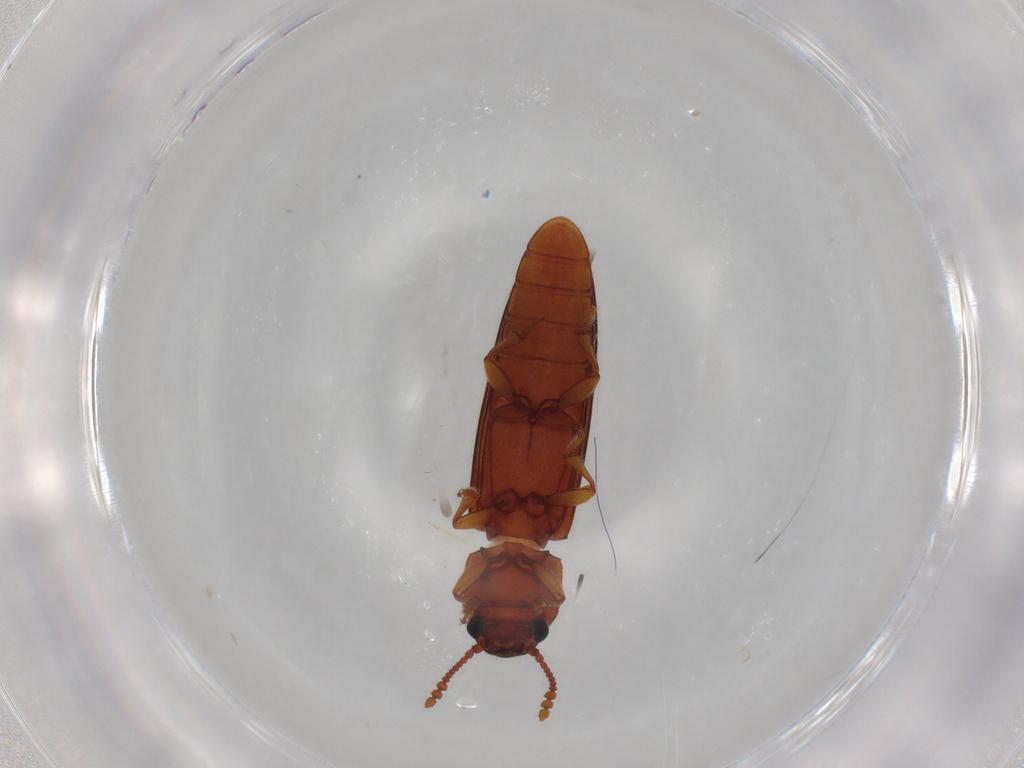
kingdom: Animalia
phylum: Arthropoda
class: Insecta
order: Coleoptera
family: Erotylidae
